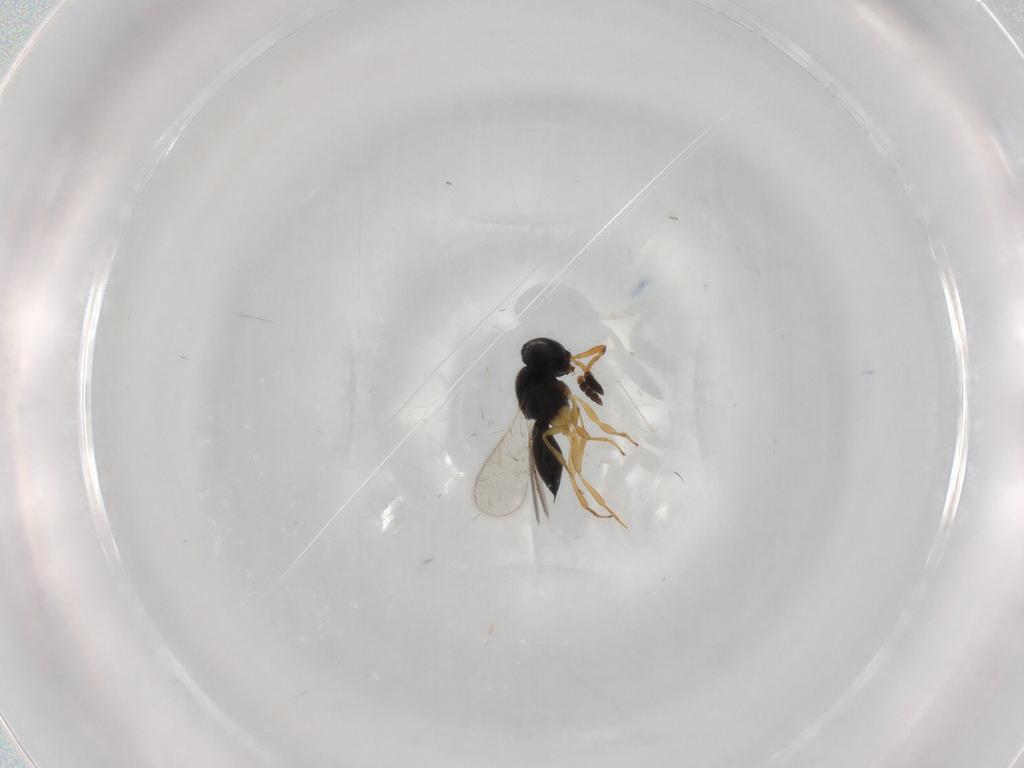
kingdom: Animalia
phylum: Arthropoda
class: Insecta
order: Hymenoptera
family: Scelionidae
